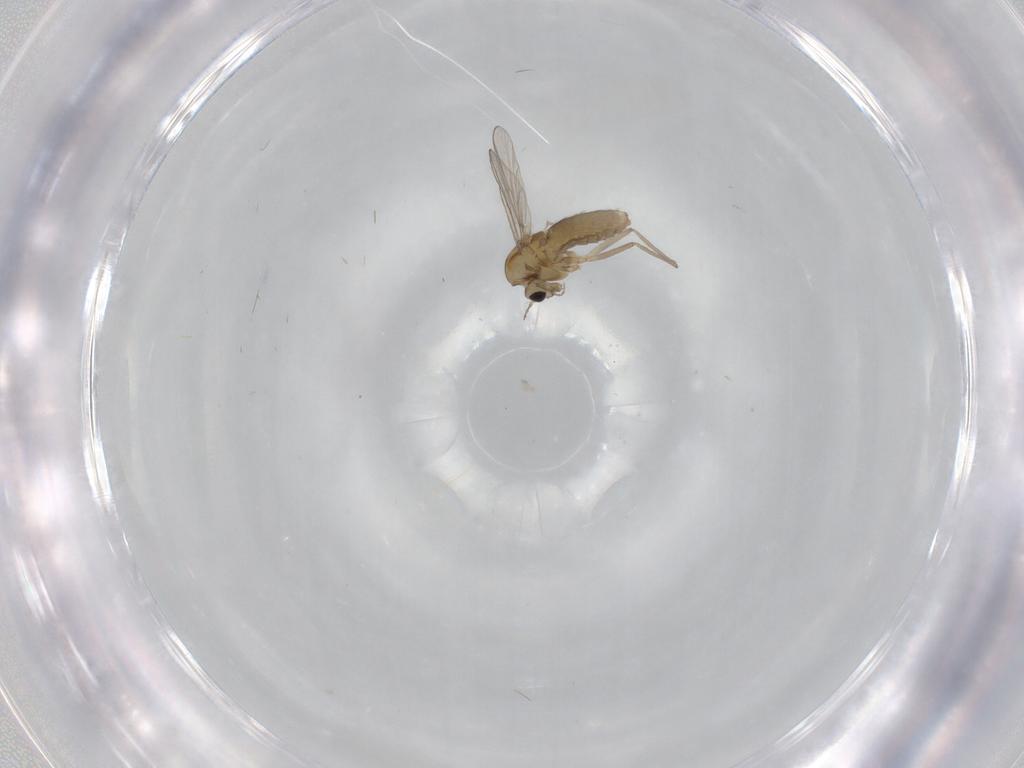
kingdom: Animalia
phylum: Arthropoda
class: Insecta
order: Diptera
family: Chironomidae
